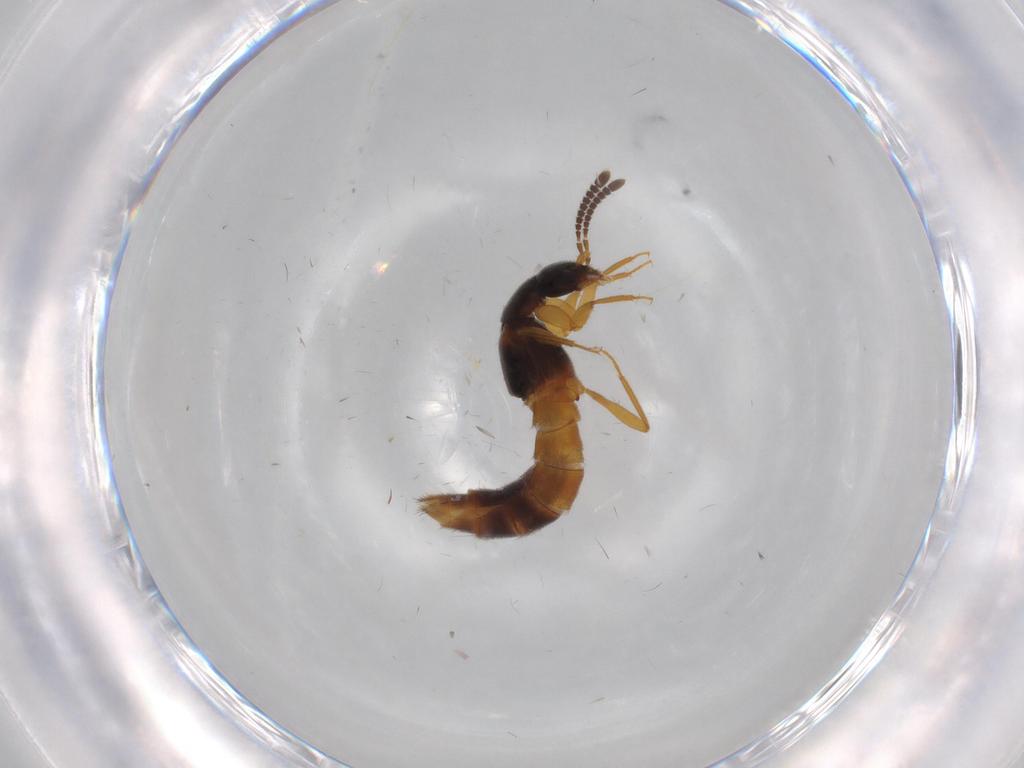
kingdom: Animalia
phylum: Arthropoda
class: Insecta
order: Coleoptera
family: Staphylinidae
